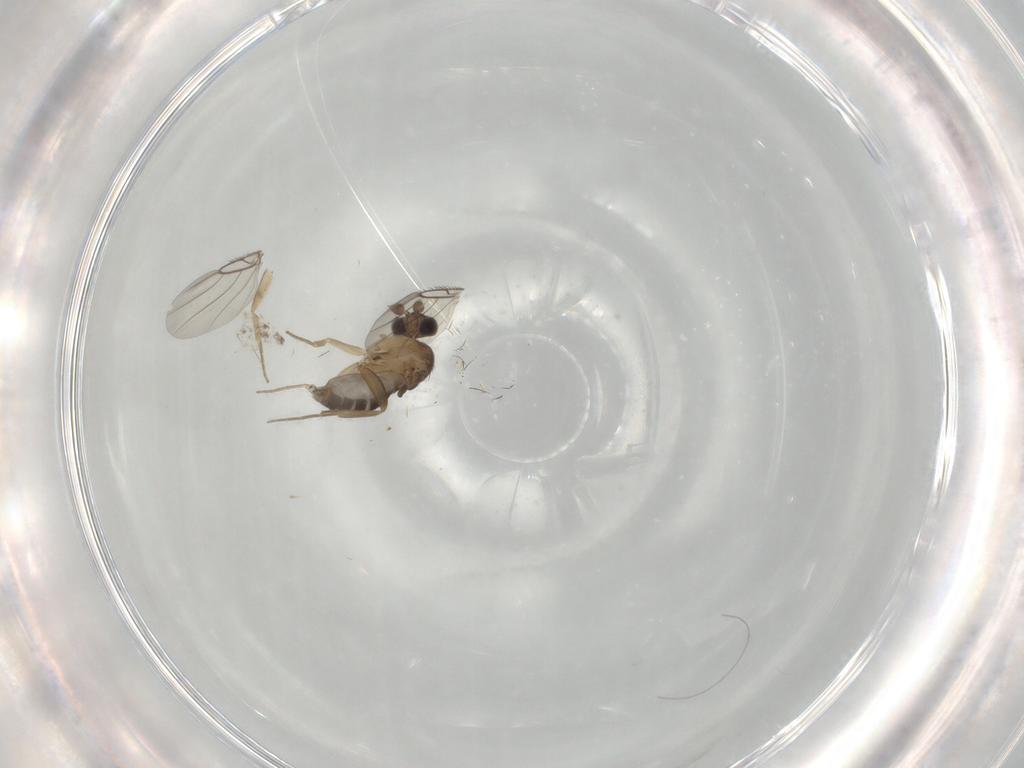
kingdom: Animalia
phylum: Arthropoda
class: Insecta
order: Diptera
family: Sciaridae
